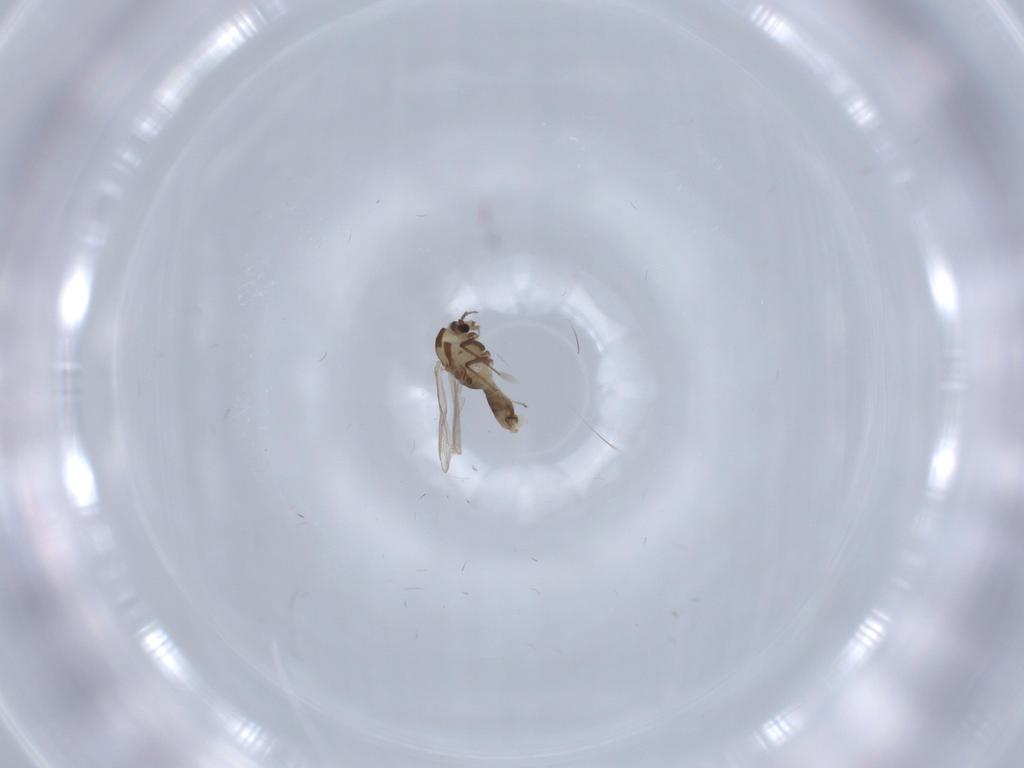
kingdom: Animalia
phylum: Arthropoda
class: Insecta
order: Diptera
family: Chironomidae
